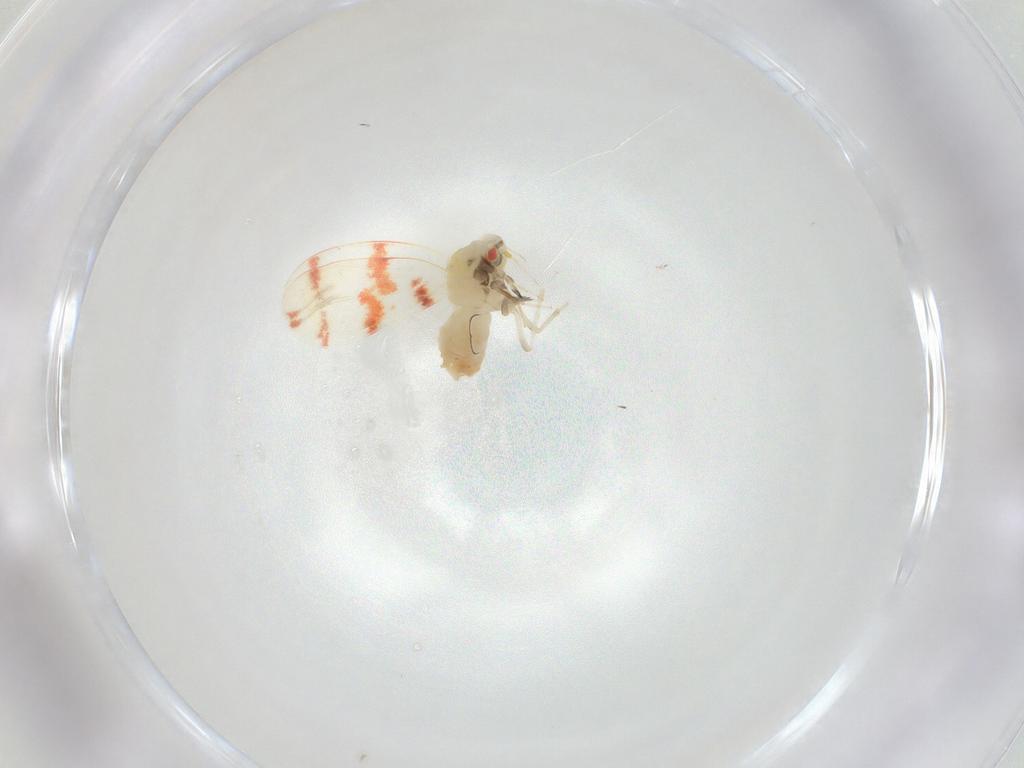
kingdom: Animalia
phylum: Arthropoda
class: Insecta
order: Hemiptera
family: Aleyrodidae
